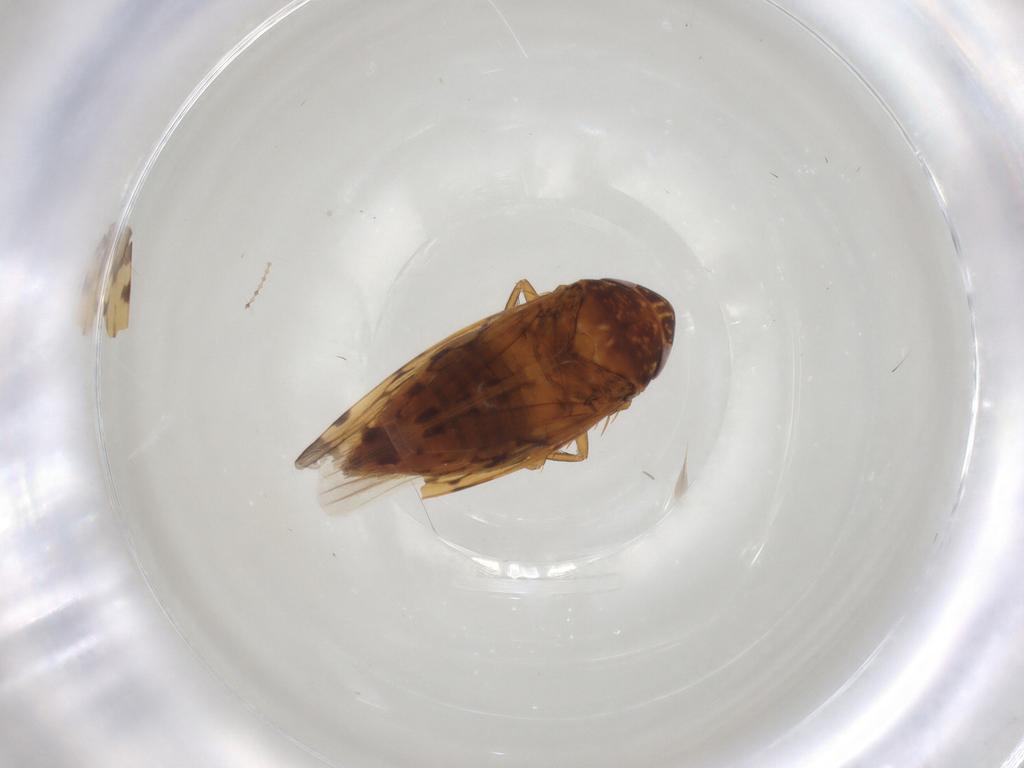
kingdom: Animalia
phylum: Arthropoda
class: Insecta
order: Hemiptera
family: Cicadellidae
